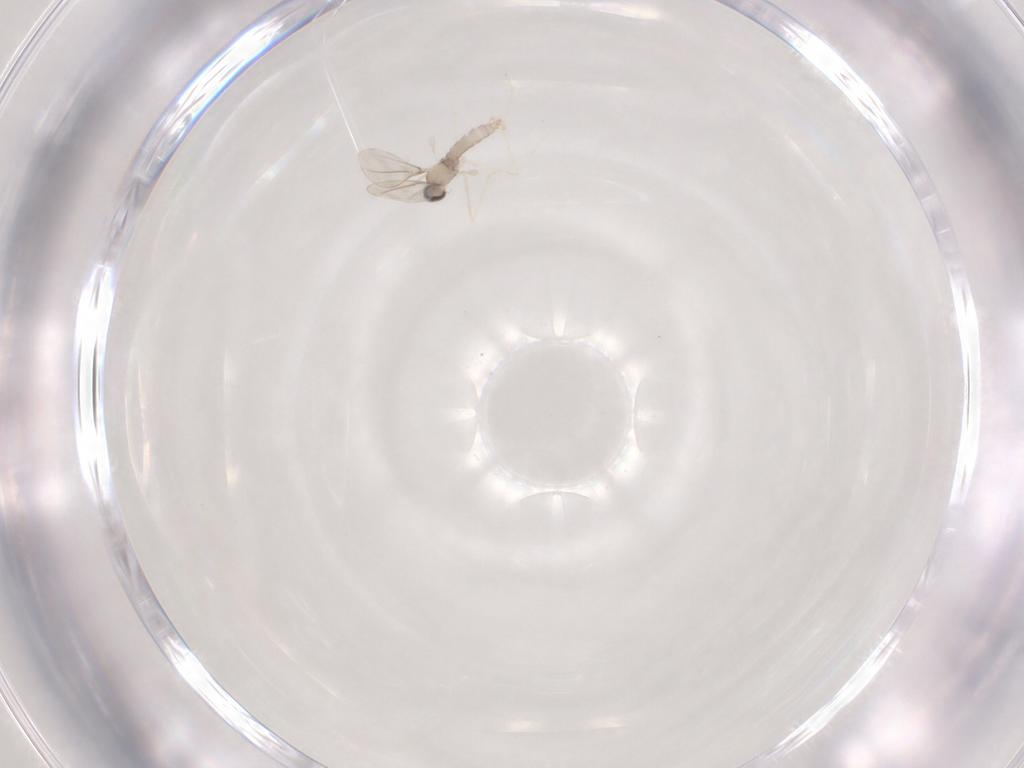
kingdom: Animalia
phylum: Arthropoda
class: Insecta
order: Diptera
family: Cecidomyiidae
